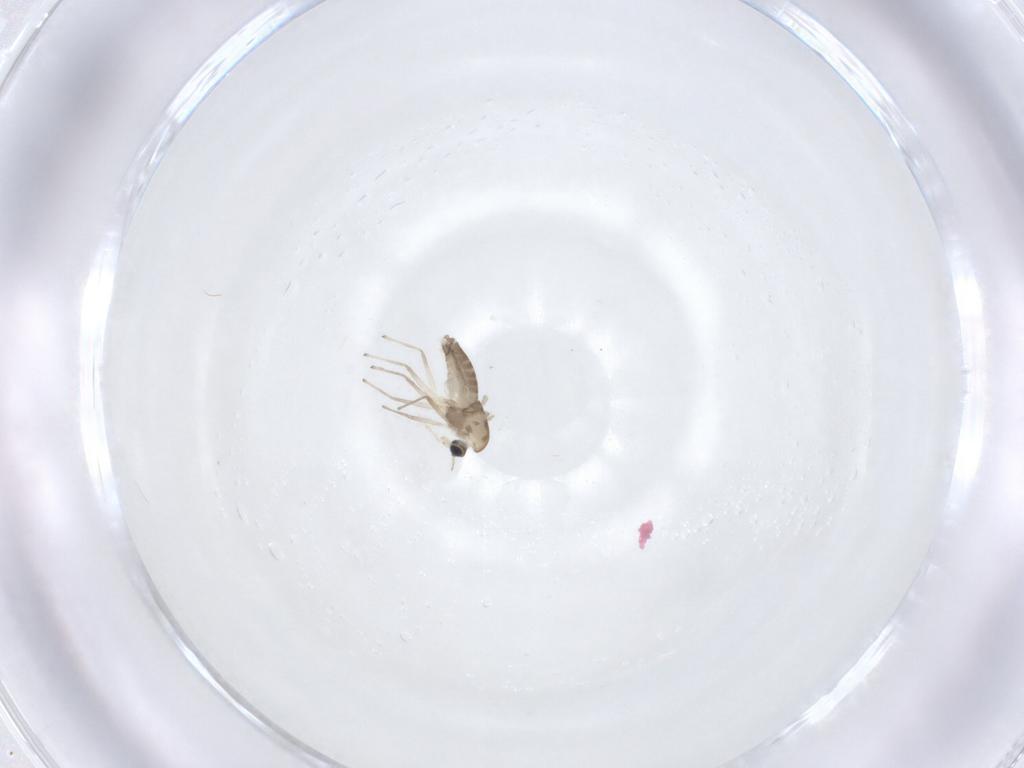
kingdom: Animalia
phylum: Arthropoda
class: Insecta
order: Diptera
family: Chironomidae
